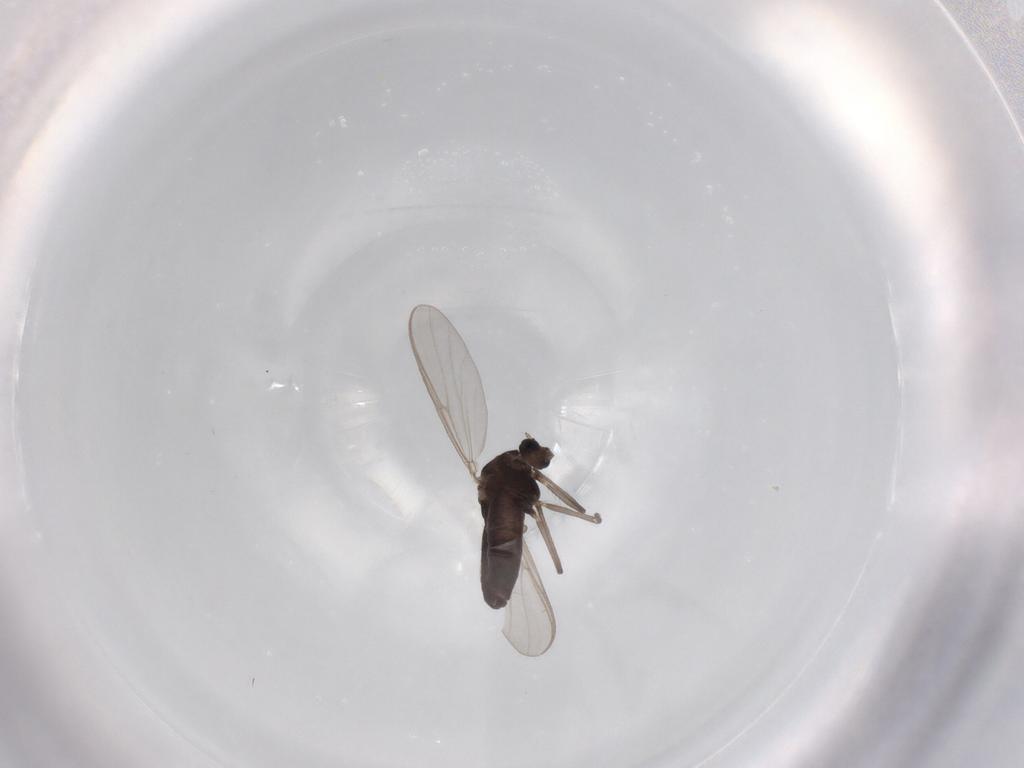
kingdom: Animalia
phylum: Arthropoda
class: Insecta
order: Diptera
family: Chironomidae
